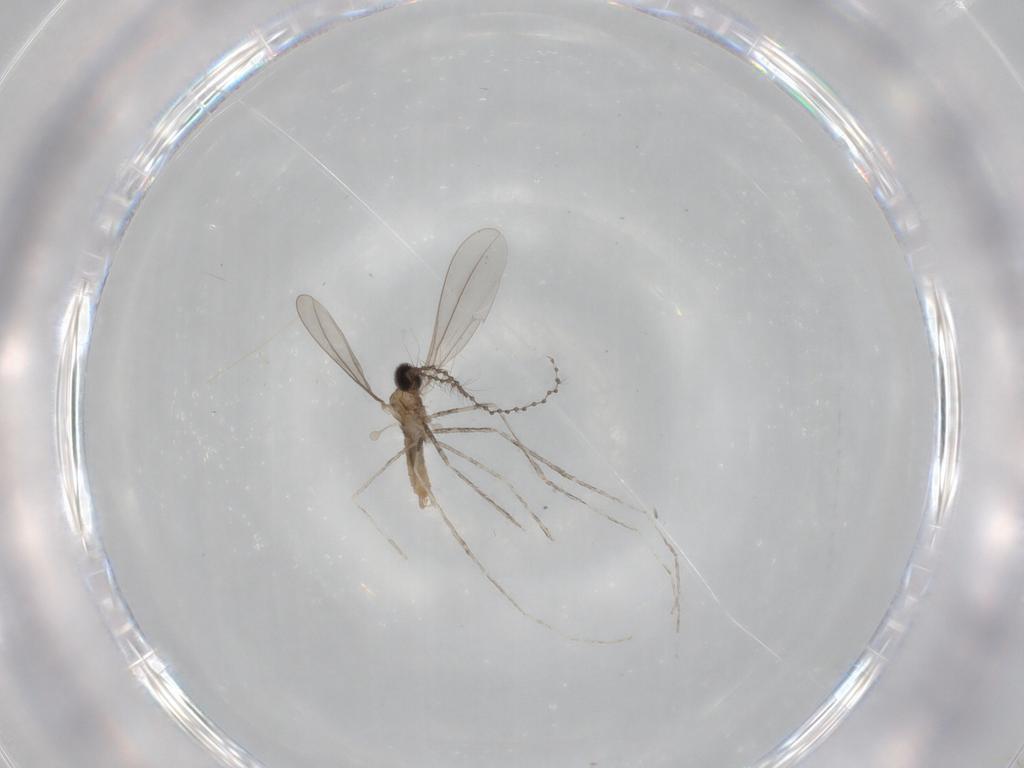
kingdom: Animalia
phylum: Arthropoda
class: Insecta
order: Diptera
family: Cecidomyiidae
